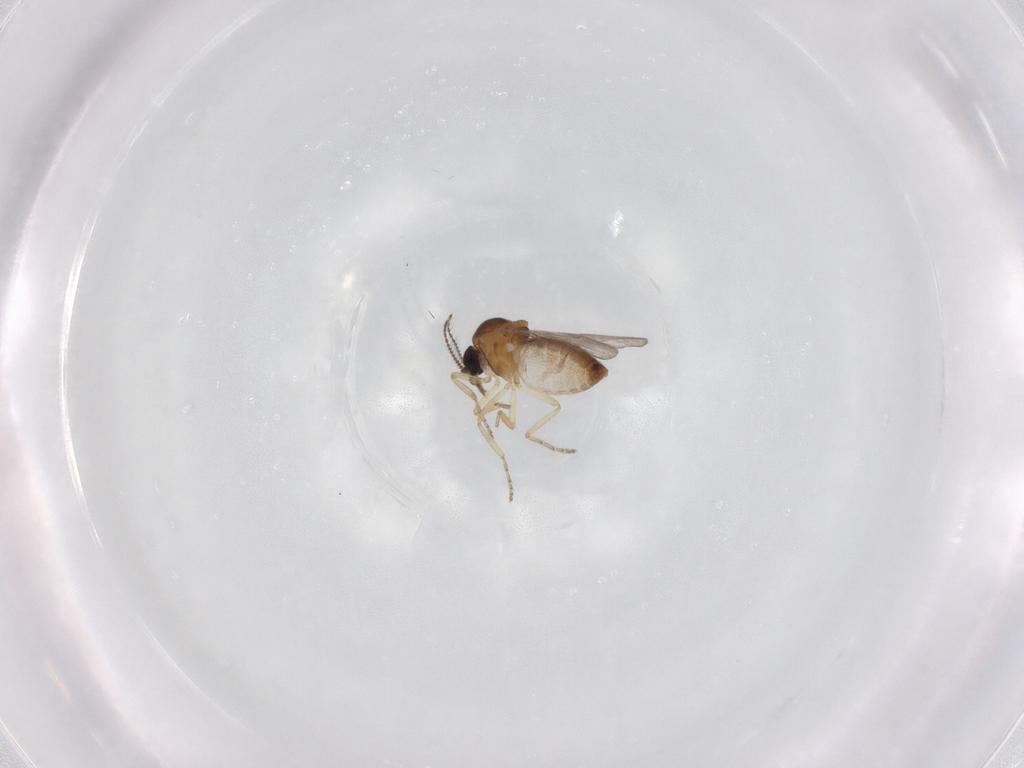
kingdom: Animalia
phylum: Arthropoda
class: Insecta
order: Diptera
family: Ceratopogonidae
